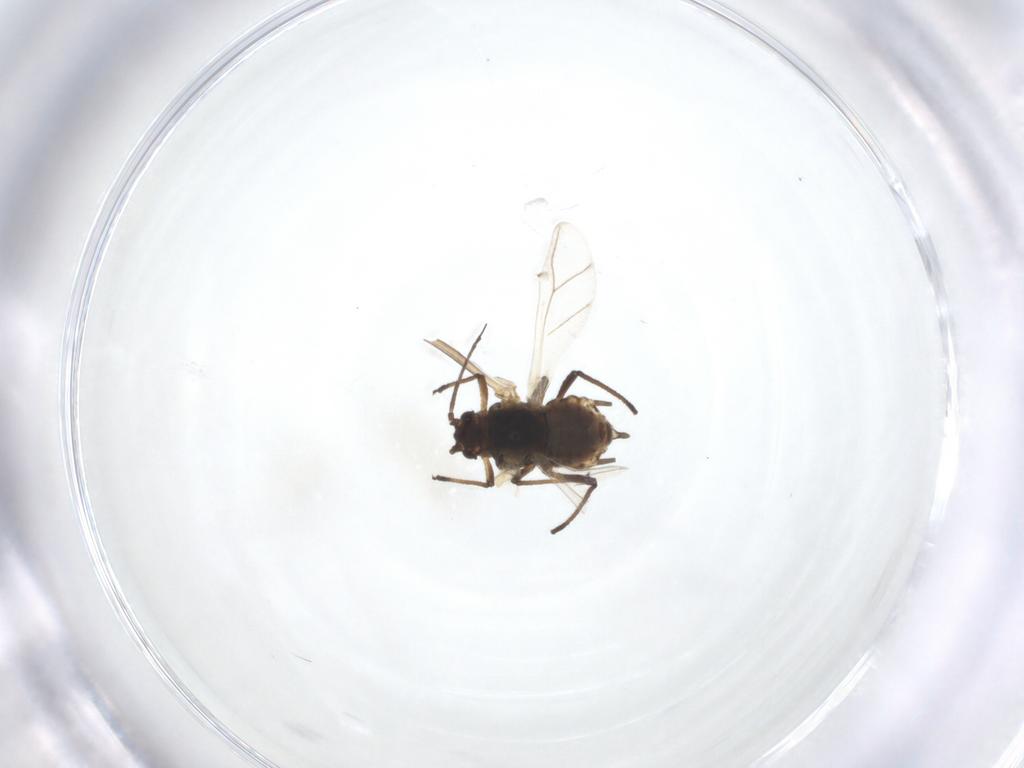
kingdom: Animalia
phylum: Arthropoda
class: Insecta
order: Hemiptera
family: Aphididae
